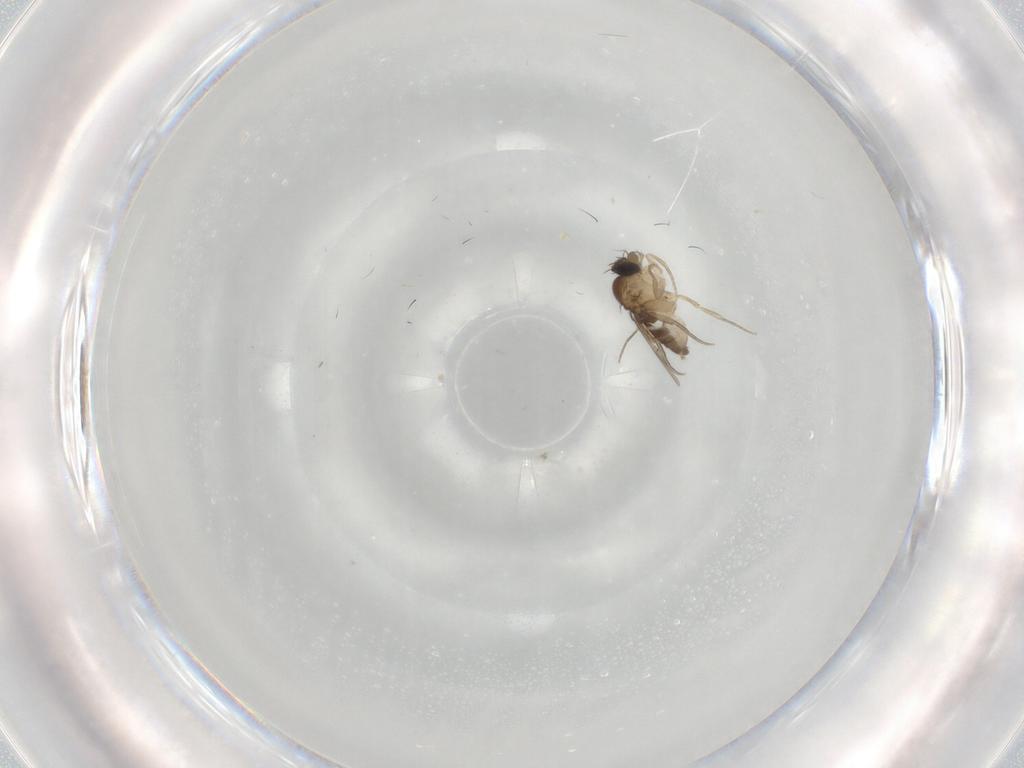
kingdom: Animalia
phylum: Arthropoda
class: Insecta
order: Diptera
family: Phoridae
